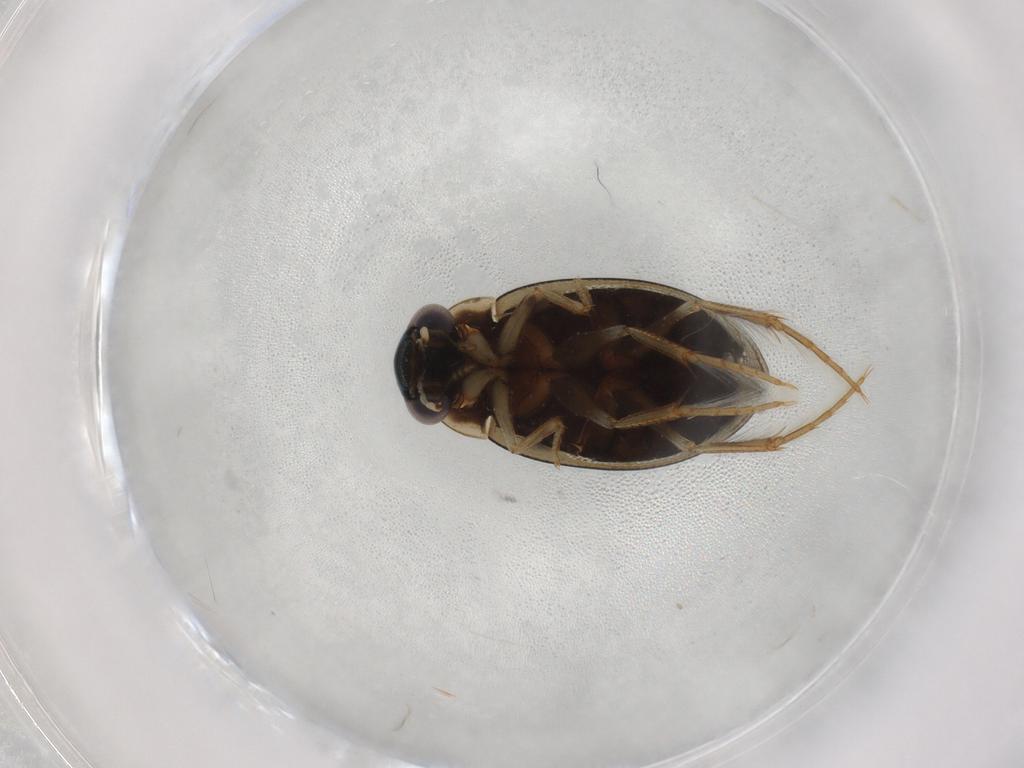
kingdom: Animalia
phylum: Arthropoda
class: Insecta
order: Coleoptera
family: Hydrophilidae
